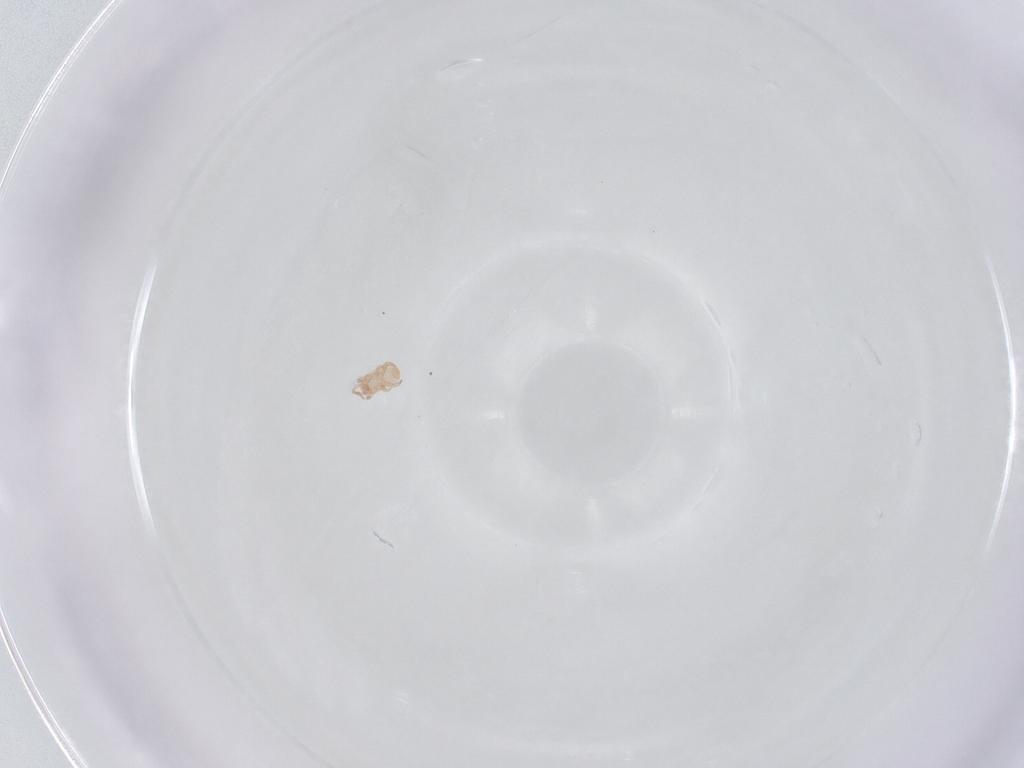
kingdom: Animalia
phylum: Arthropoda
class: Arachnida
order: Mesostigmata
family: Digamasellidae
